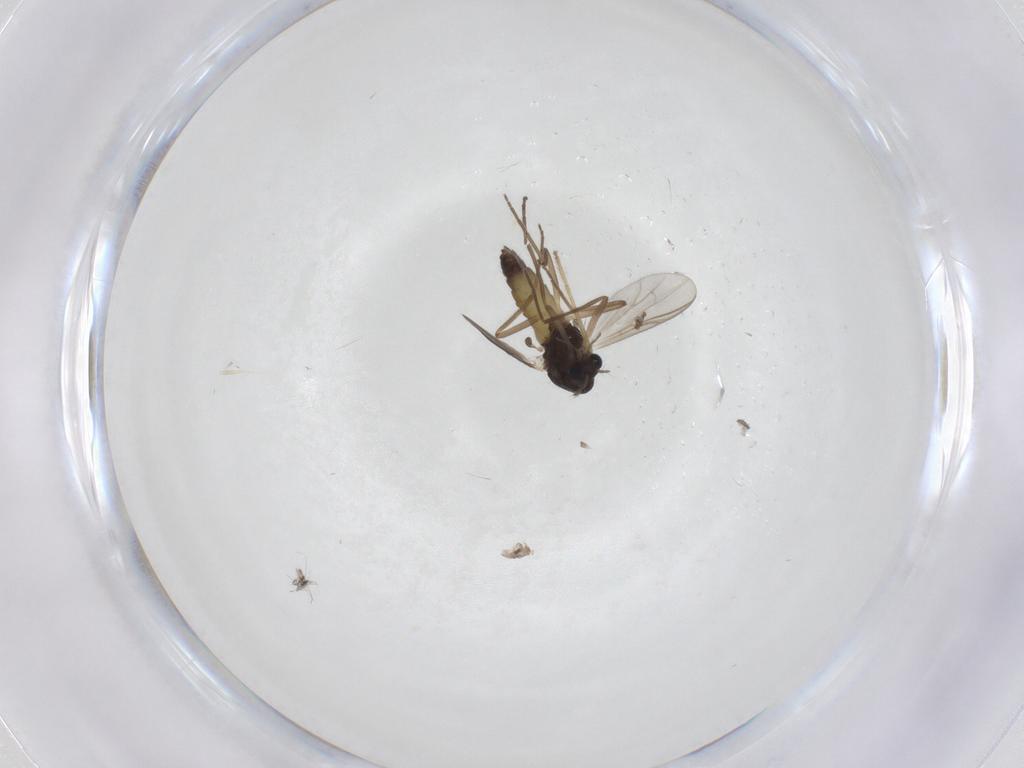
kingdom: Animalia
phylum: Arthropoda
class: Insecta
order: Diptera
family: Chironomidae
